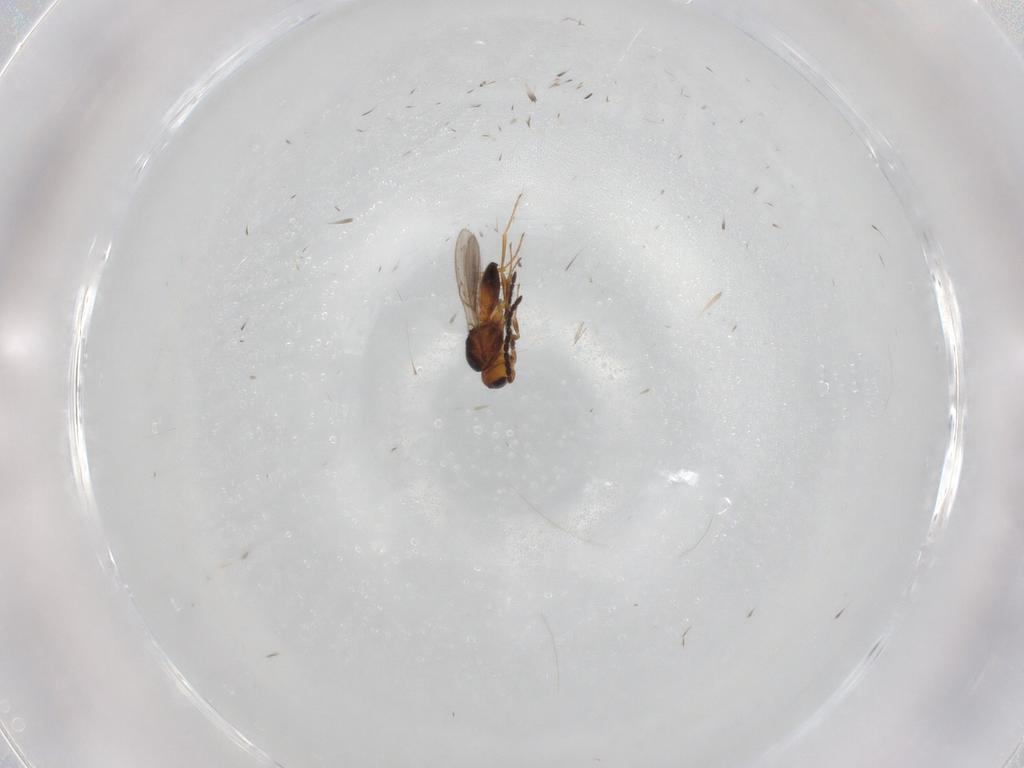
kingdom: Animalia
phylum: Arthropoda
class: Insecta
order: Hymenoptera
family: Scelionidae
